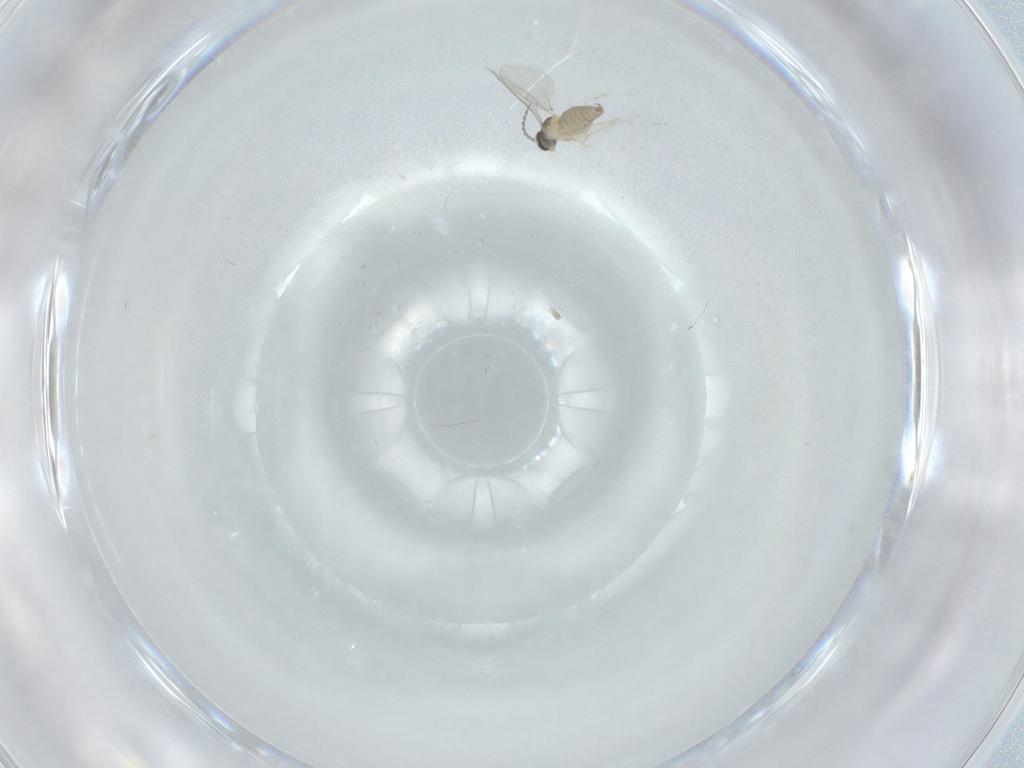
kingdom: Animalia
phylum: Arthropoda
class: Insecta
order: Diptera
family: Cecidomyiidae
